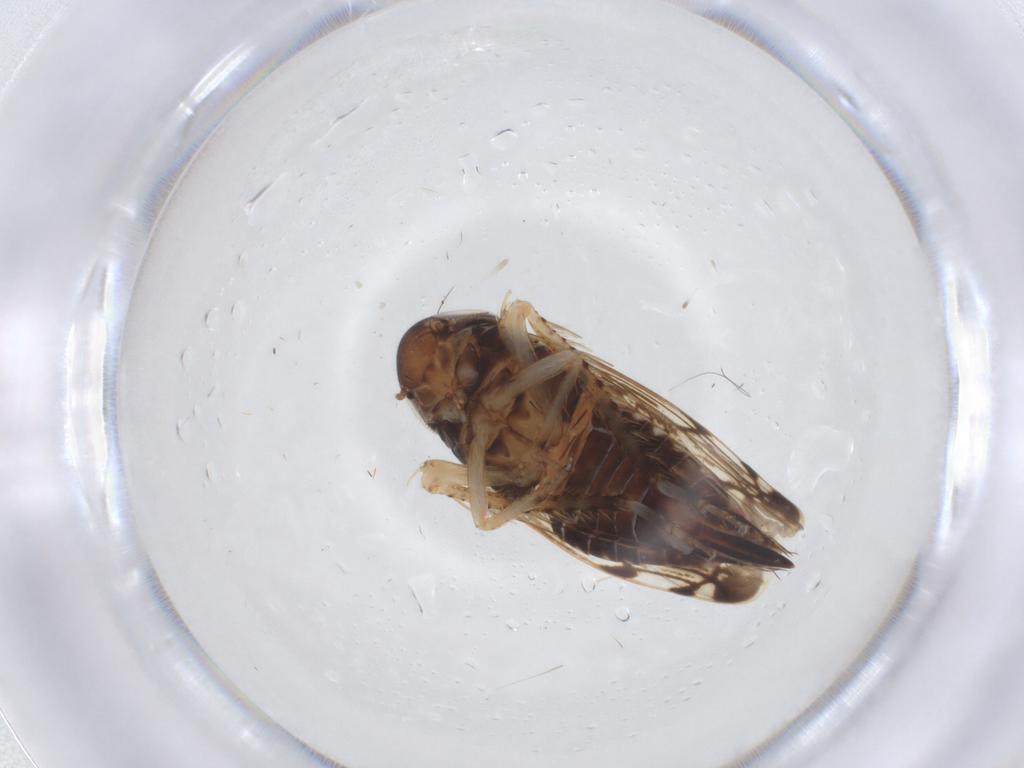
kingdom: Animalia
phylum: Arthropoda
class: Insecta
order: Hemiptera
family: Cicadellidae
